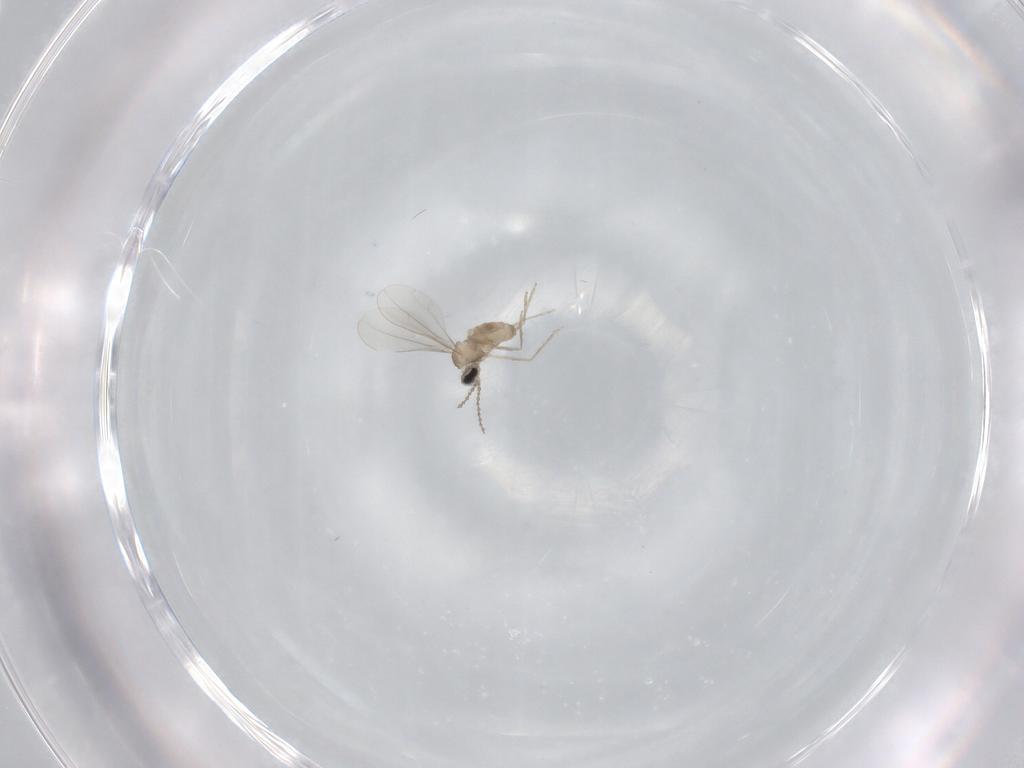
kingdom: Animalia
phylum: Arthropoda
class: Insecta
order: Diptera
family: Cecidomyiidae
